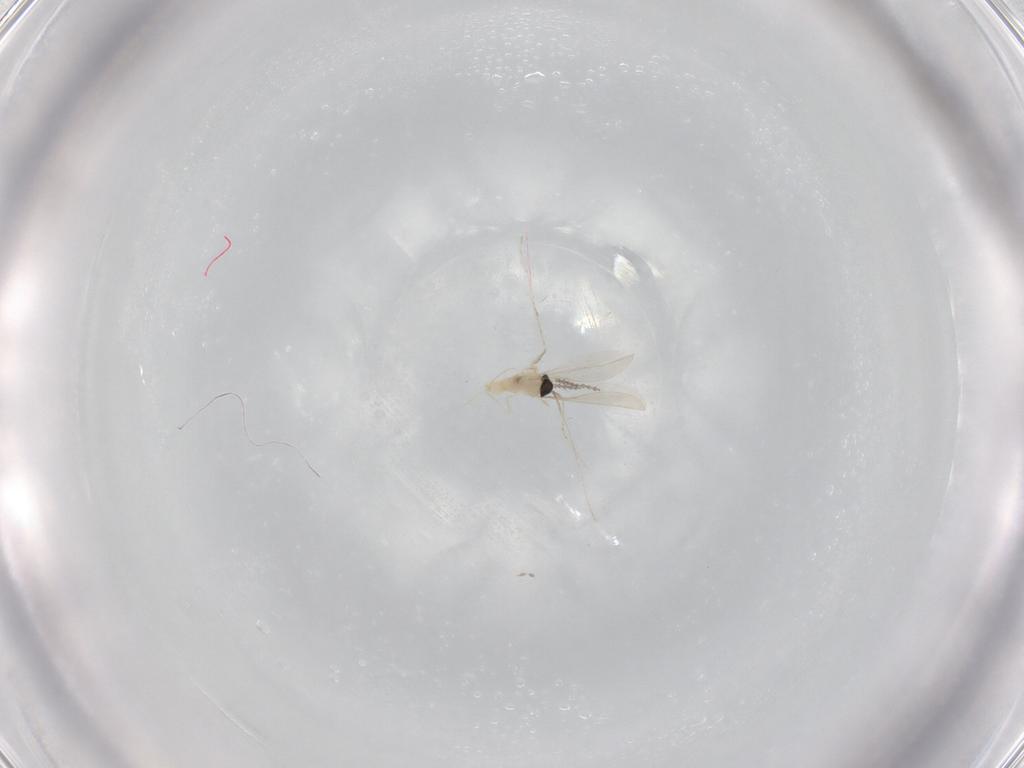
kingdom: Animalia
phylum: Arthropoda
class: Insecta
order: Diptera
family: Cecidomyiidae
